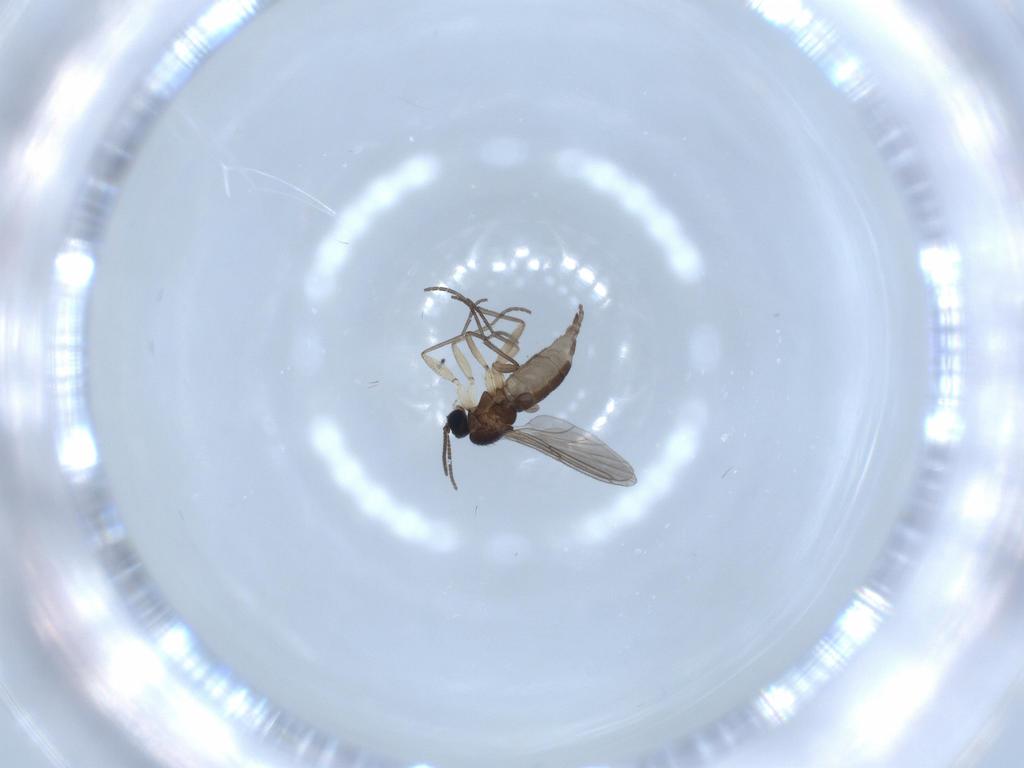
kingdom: Animalia
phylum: Arthropoda
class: Insecta
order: Diptera
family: Sciaridae
